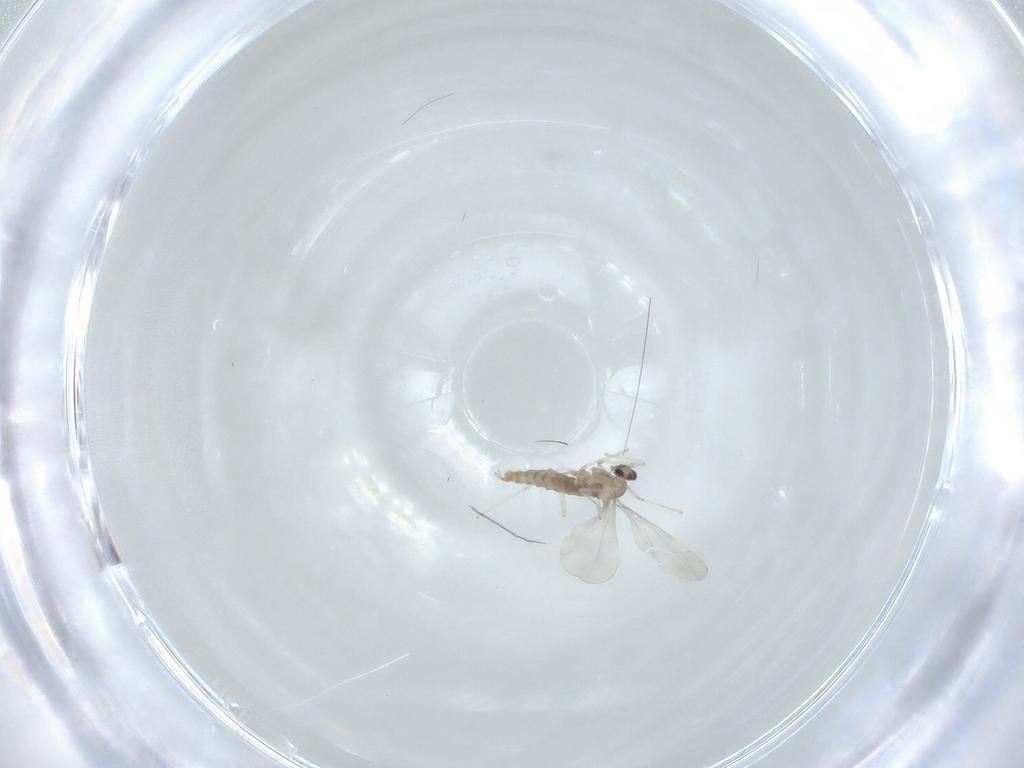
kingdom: Animalia
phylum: Arthropoda
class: Insecta
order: Diptera
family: Cecidomyiidae
